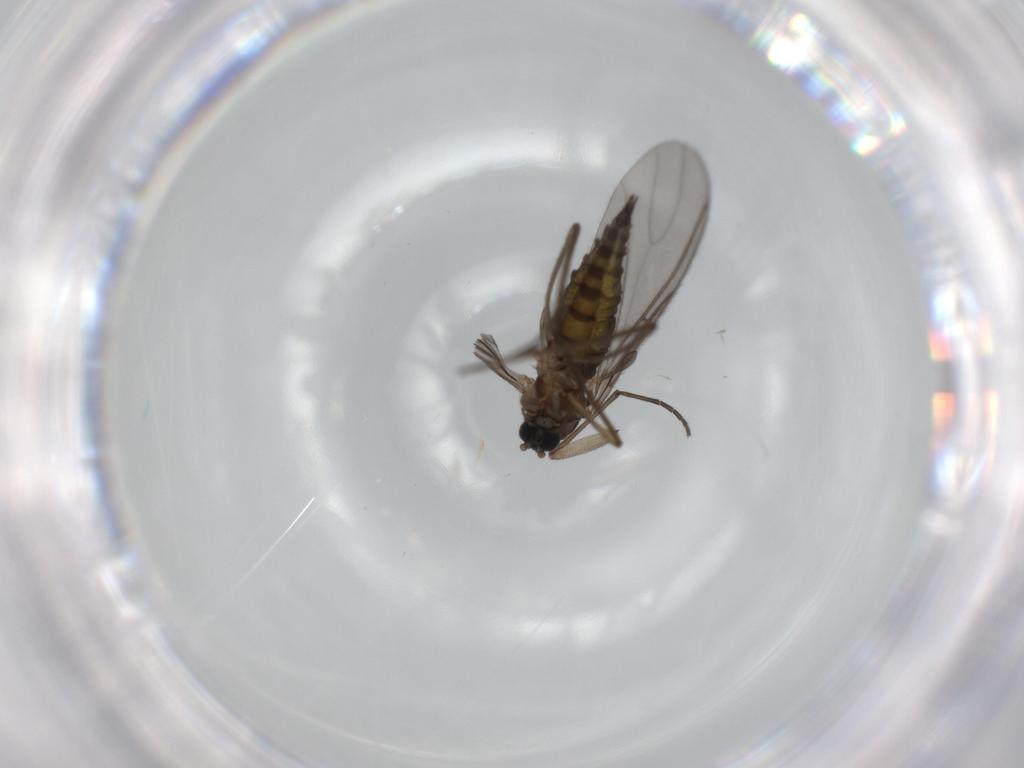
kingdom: Animalia
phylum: Arthropoda
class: Insecta
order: Diptera
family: Sciaridae
